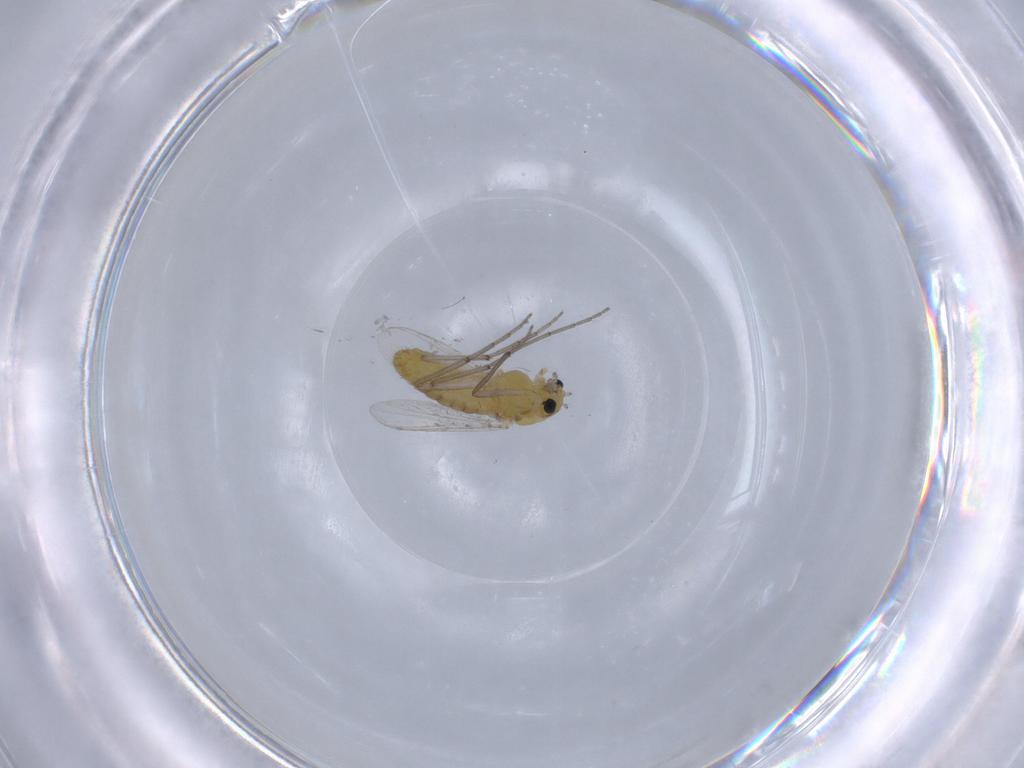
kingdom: Animalia
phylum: Arthropoda
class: Insecta
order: Diptera
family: Chironomidae
